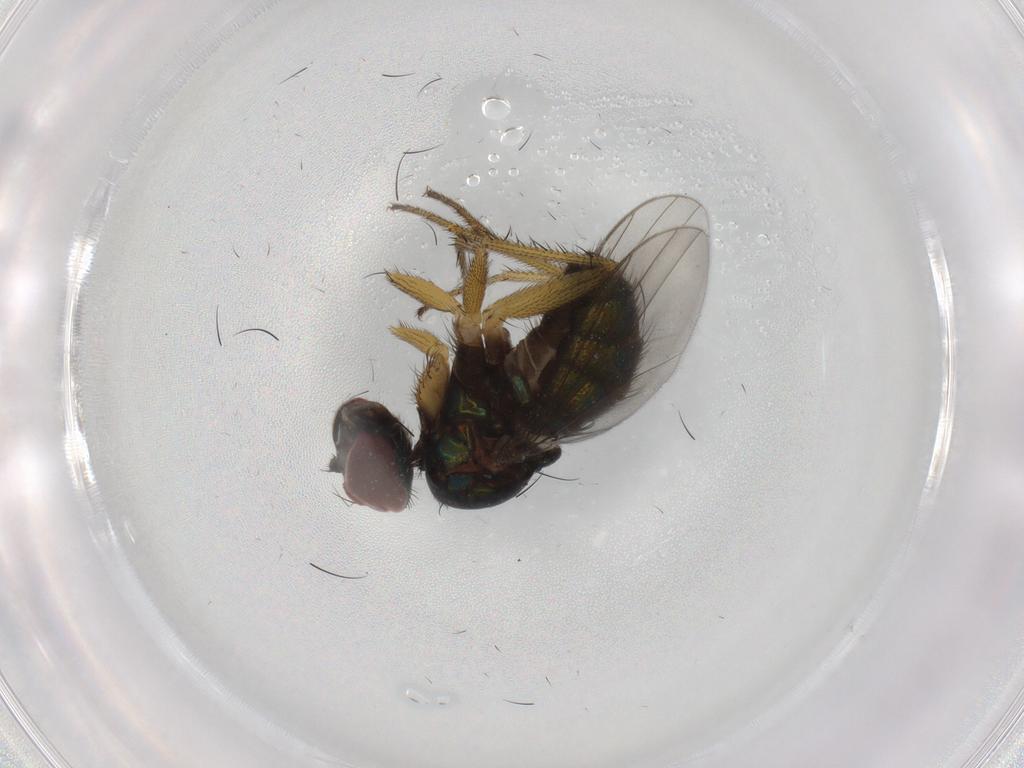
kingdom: Animalia
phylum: Arthropoda
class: Insecta
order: Diptera
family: Dolichopodidae
